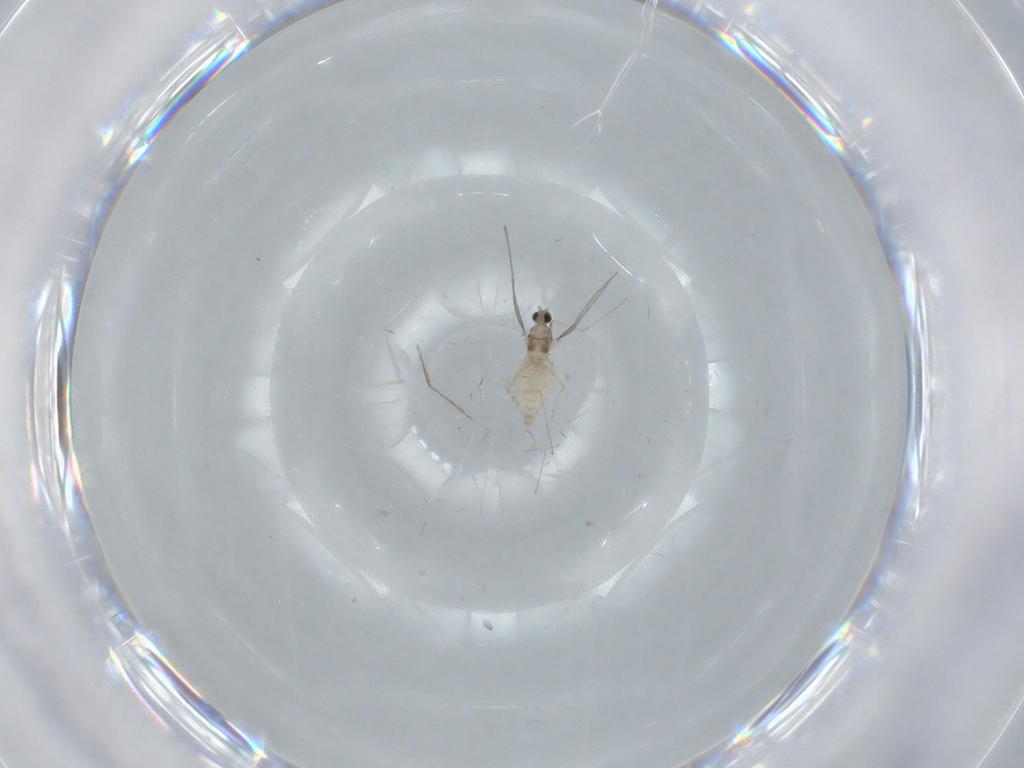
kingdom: Animalia
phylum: Arthropoda
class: Insecta
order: Diptera
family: Cecidomyiidae
